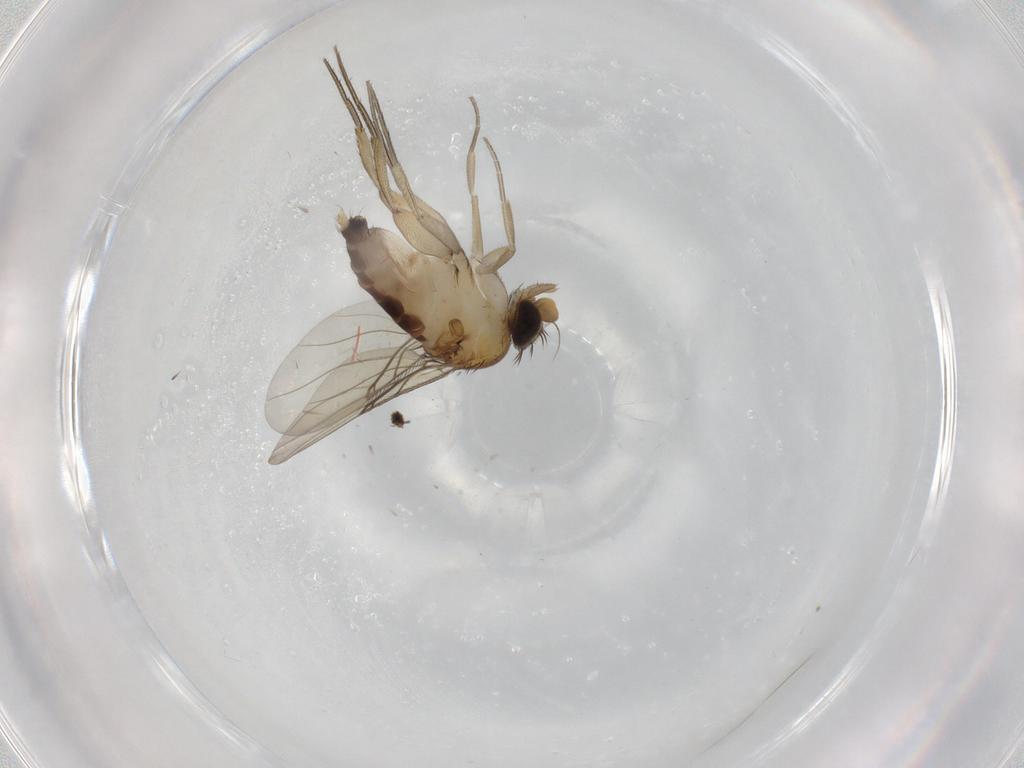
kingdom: Animalia
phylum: Arthropoda
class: Insecta
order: Diptera
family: Phoridae
